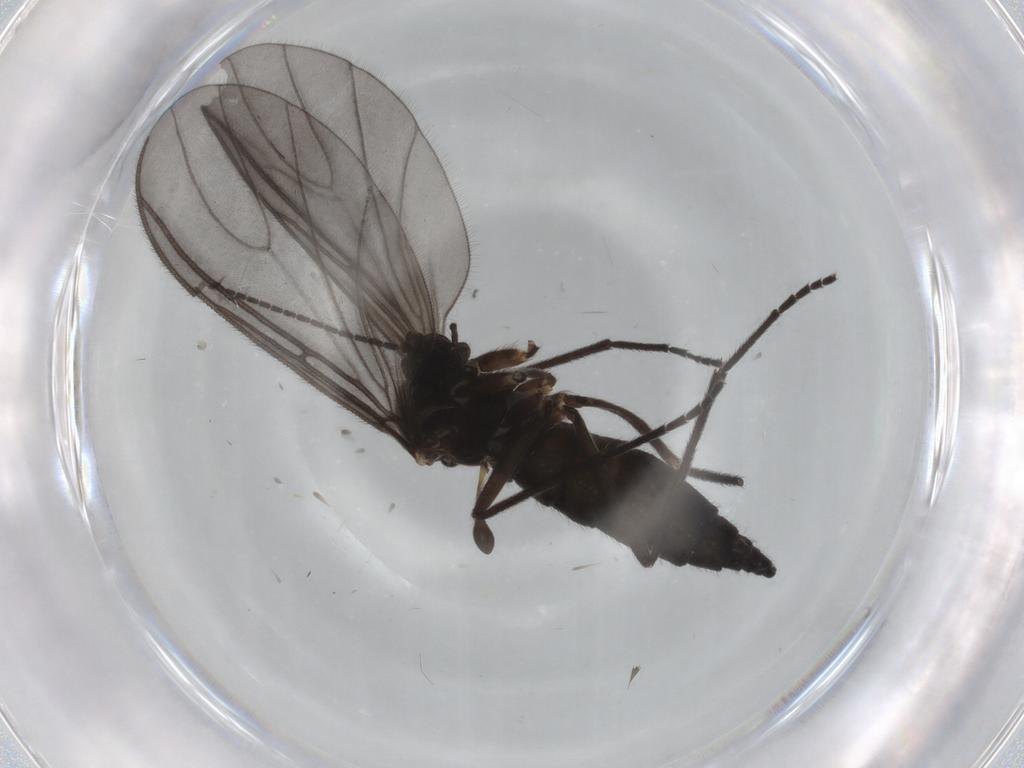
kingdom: Animalia
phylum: Arthropoda
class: Insecta
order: Diptera
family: Sciaridae
